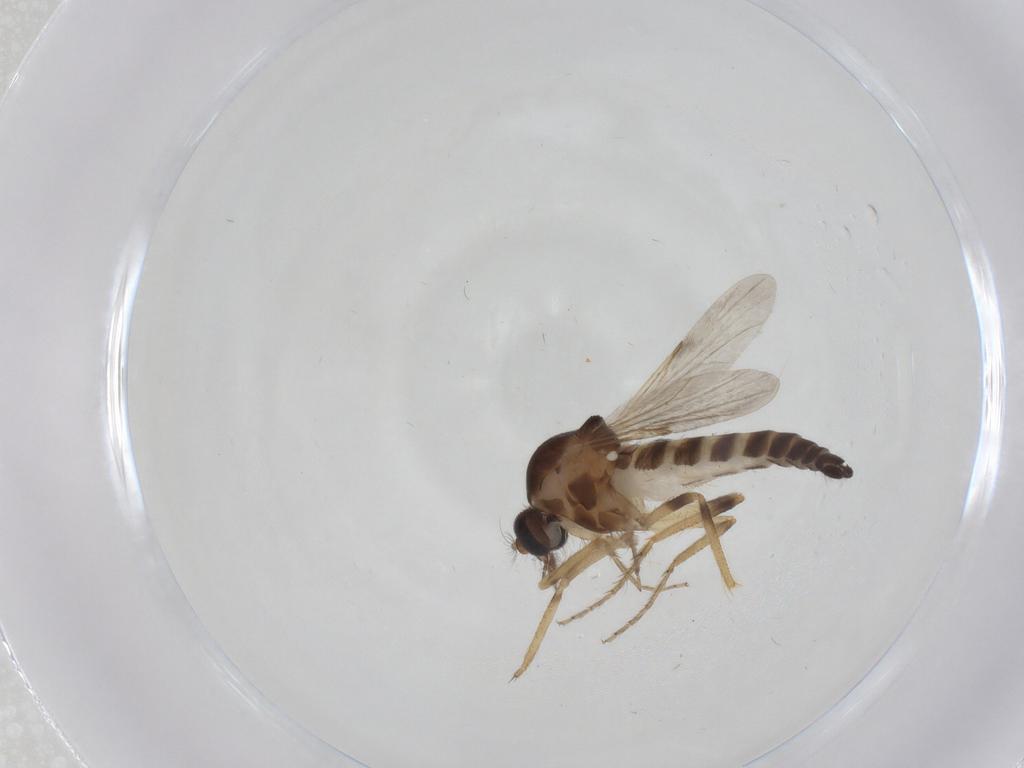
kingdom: Animalia
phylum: Arthropoda
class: Insecta
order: Diptera
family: Ceratopogonidae
